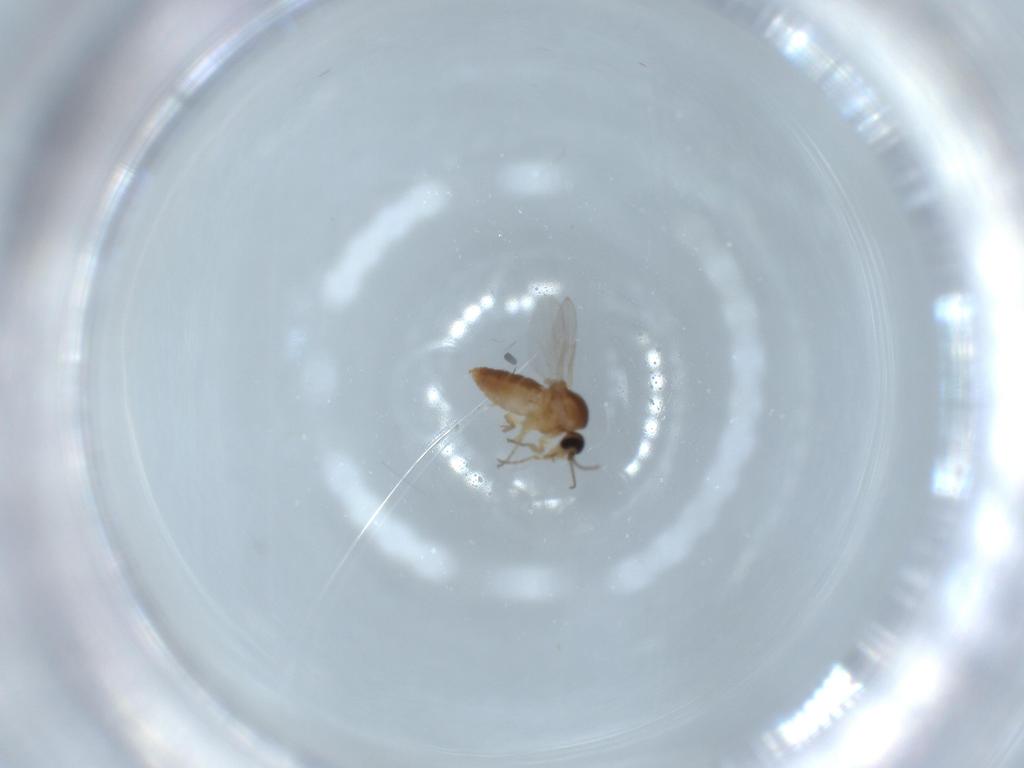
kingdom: Animalia
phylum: Arthropoda
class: Insecta
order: Diptera
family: Ceratopogonidae
